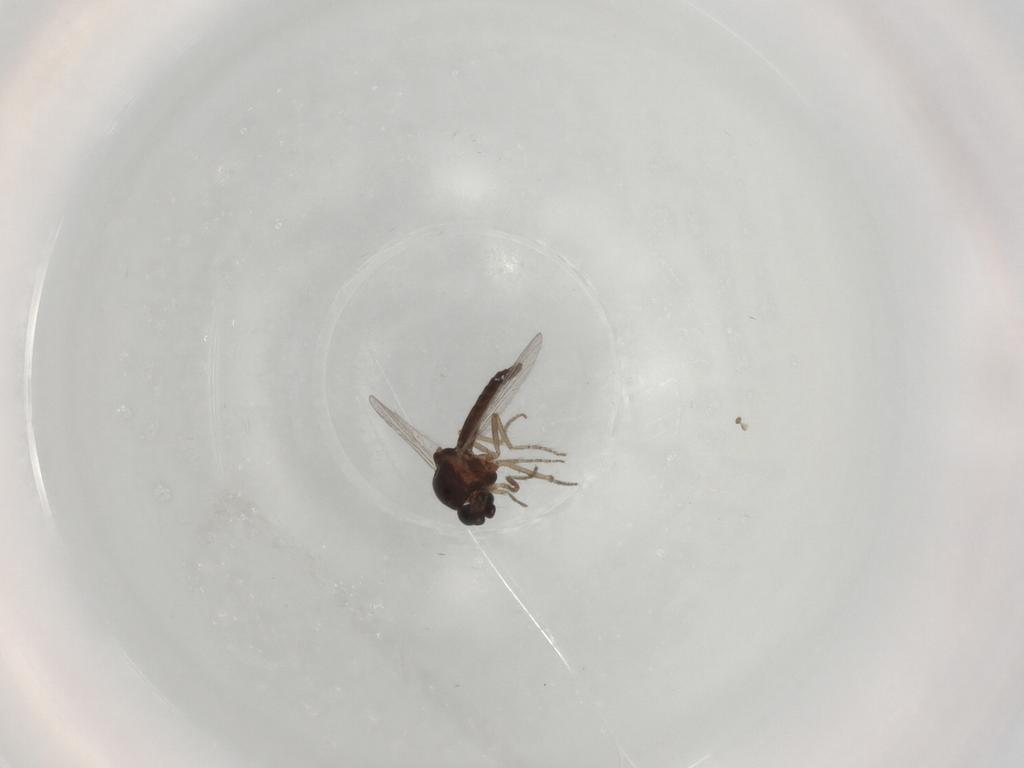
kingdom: Animalia
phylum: Arthropoda
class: Insecta
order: Diptera
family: Ceratopogonidae
